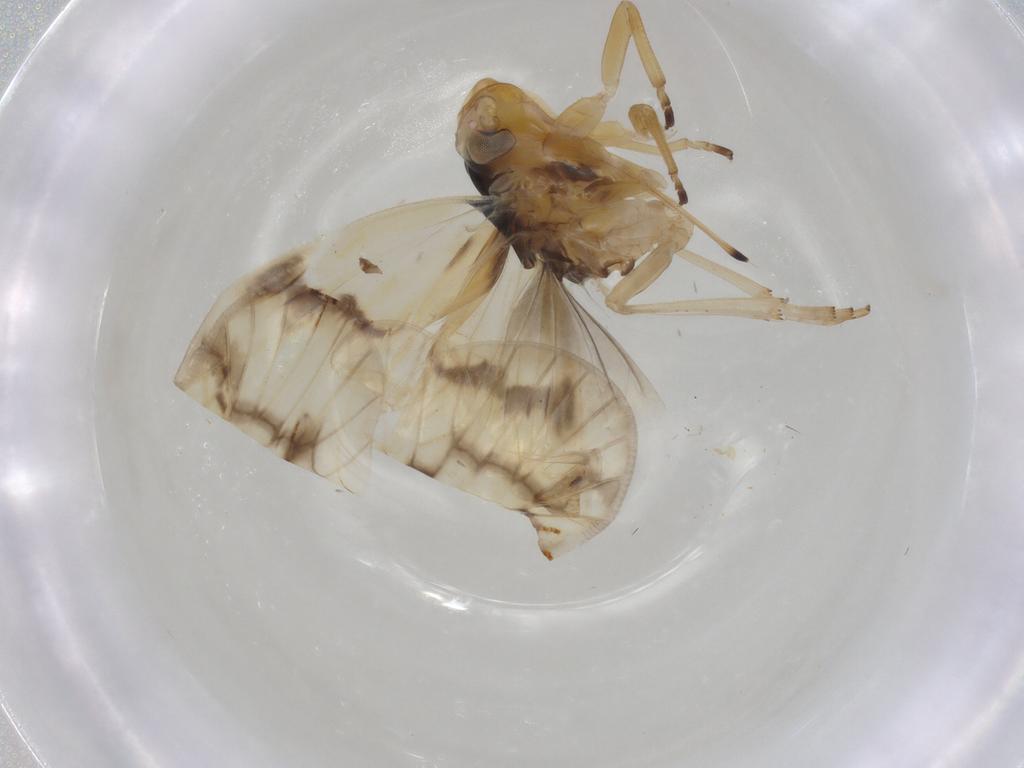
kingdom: Animalia
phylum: Arthropoda
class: Insecta
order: Hemiptera
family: Cixiidae
